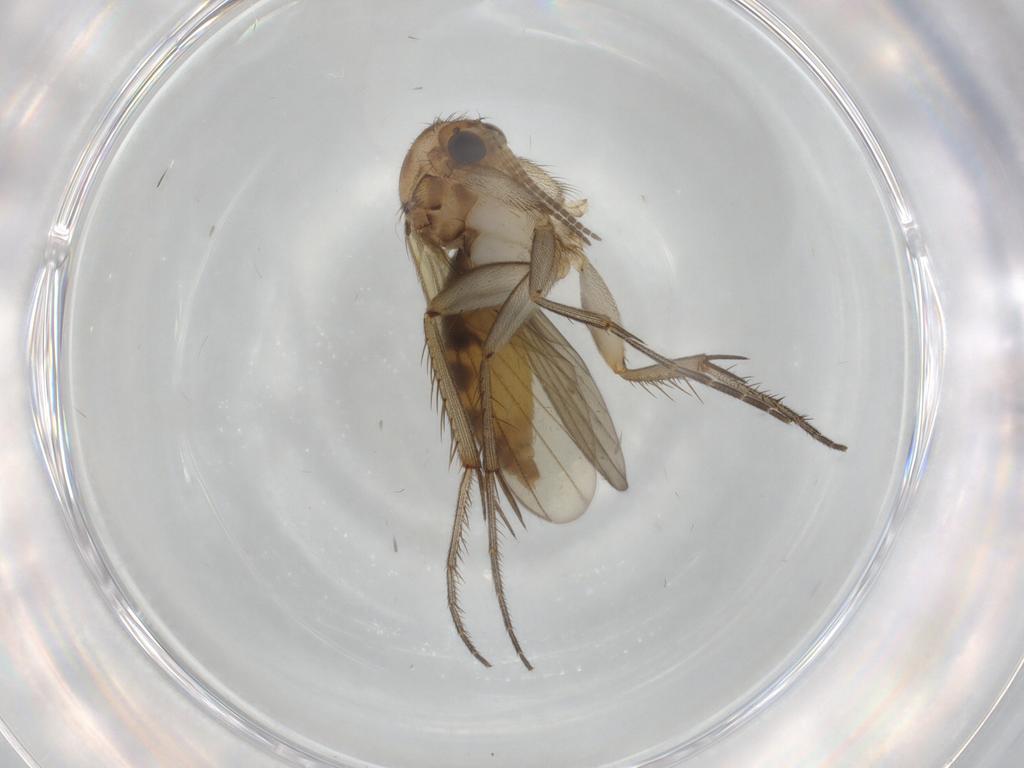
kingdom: Animalia
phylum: Arthropoda
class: Insecta
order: Diptera
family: Cecidomyiidae
